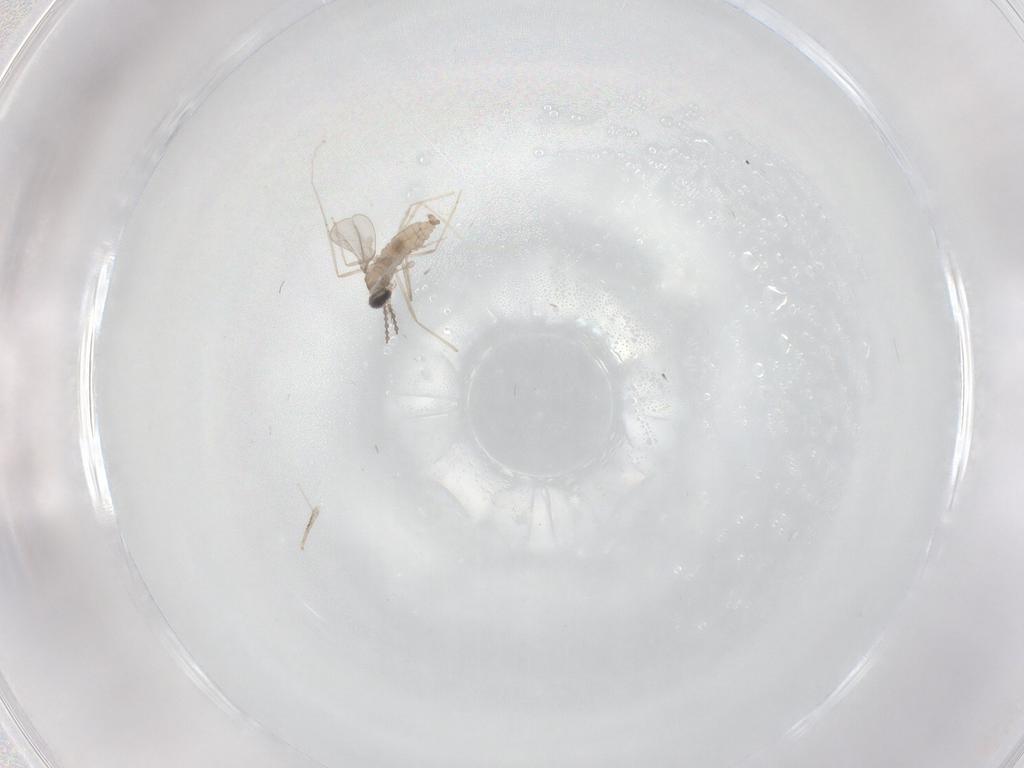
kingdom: Animalia
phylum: Arthropoda
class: Insecta
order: Diptera
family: Cecidomyiidae
